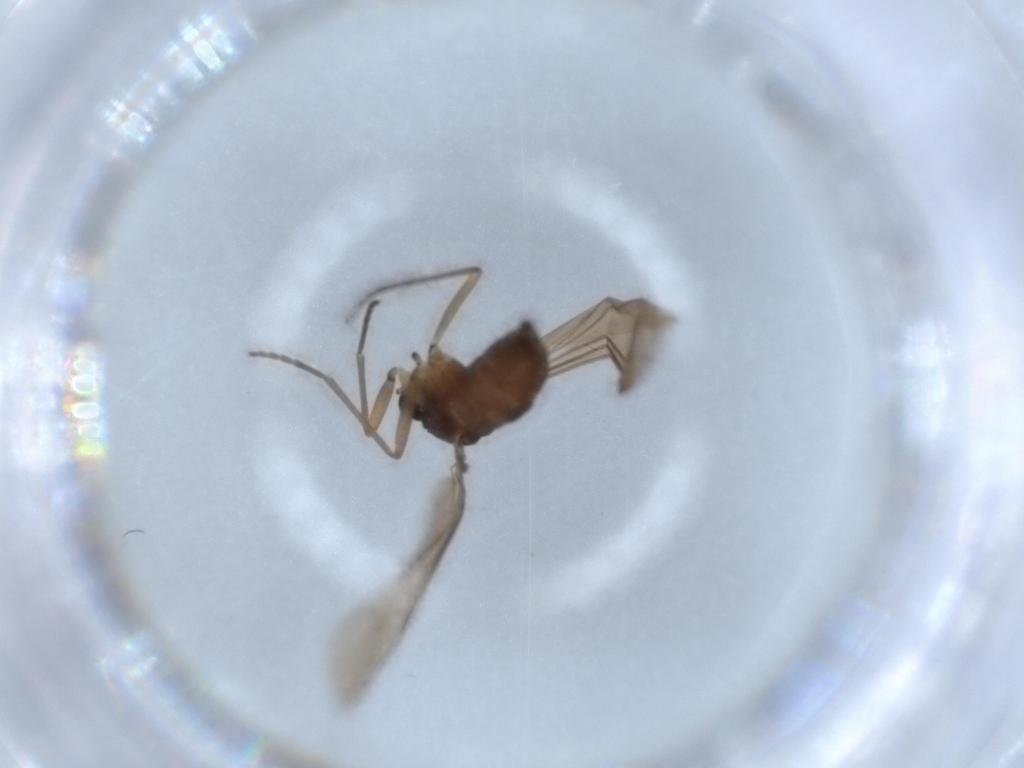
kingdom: Animalia
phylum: Arthropoda
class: Insecta
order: Diptera
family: Sciaridae
